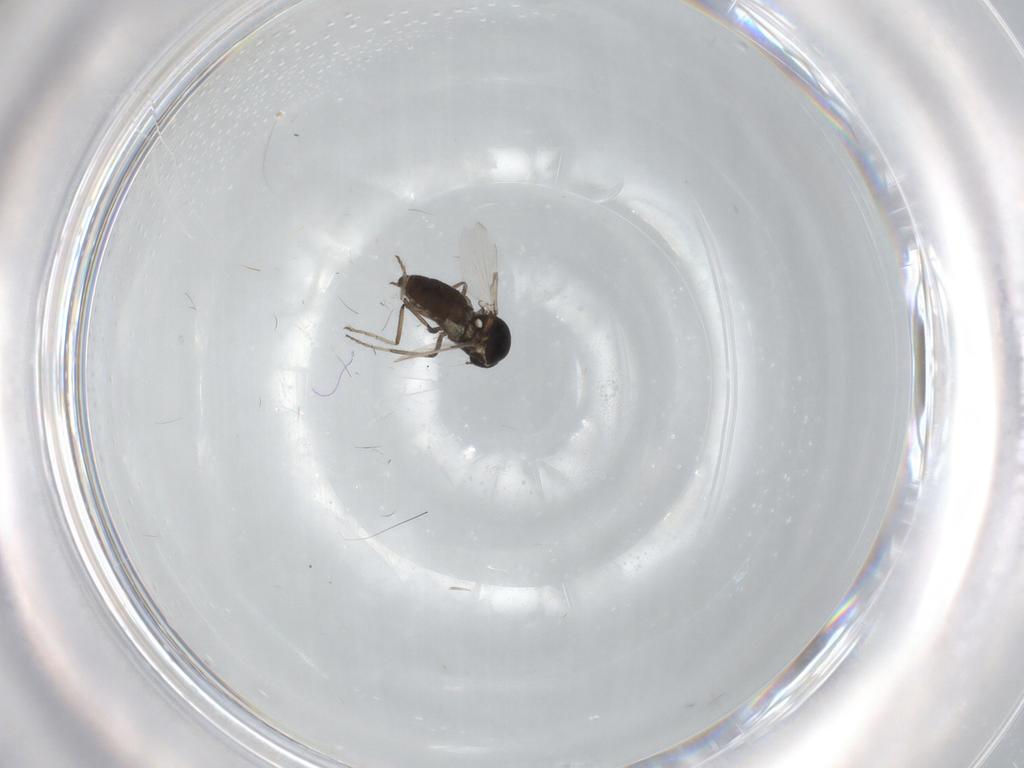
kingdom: Animalia
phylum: Arthropoda
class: Insecta
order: Diptera
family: Ceratopogonidae
